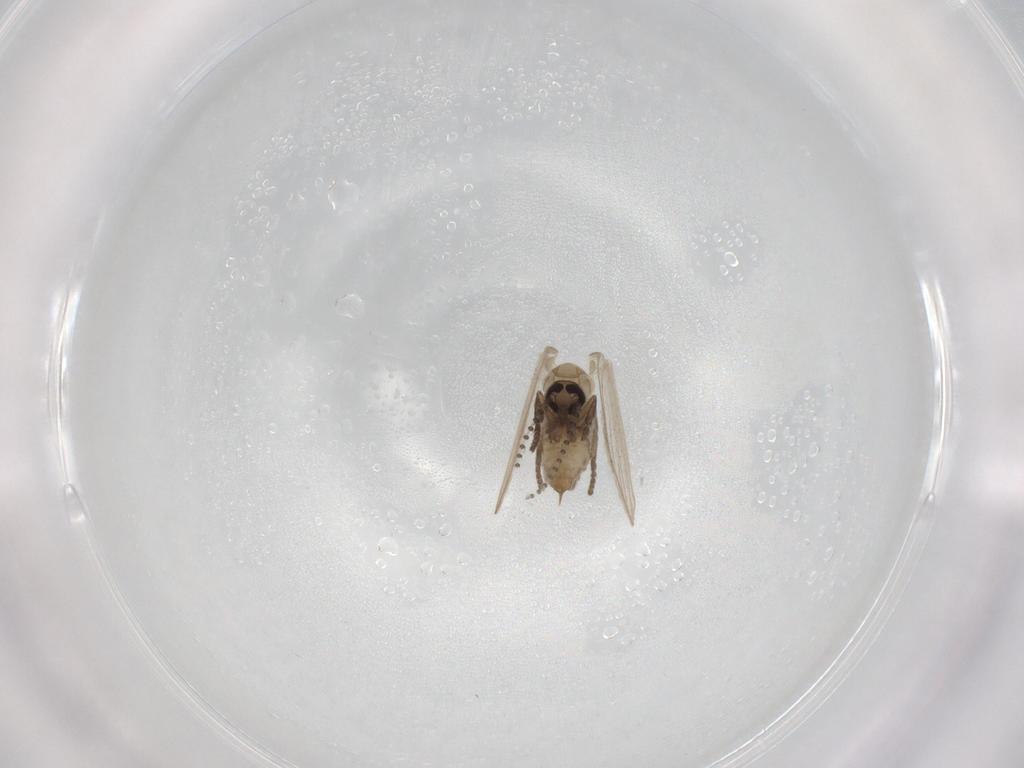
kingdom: Animalia
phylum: Arthropoda
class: Insecta
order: Diptera
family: Psychodidae
